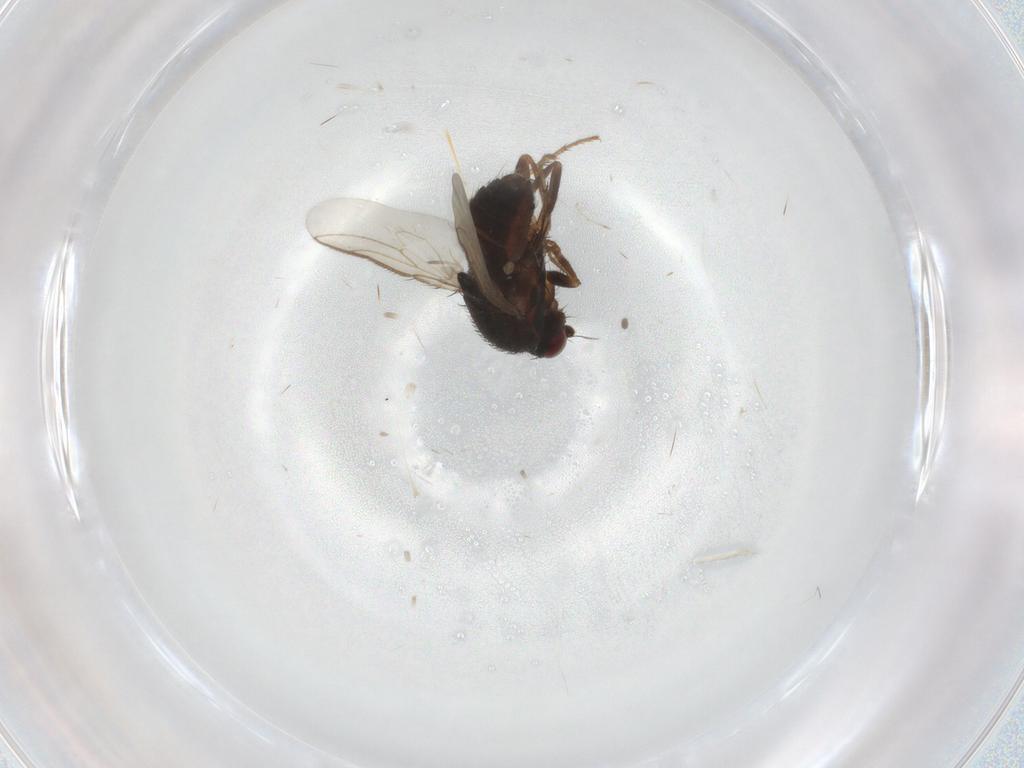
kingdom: Animalia
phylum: Arthropoda
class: Insecta
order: Diptera
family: Sphaeroceridae
